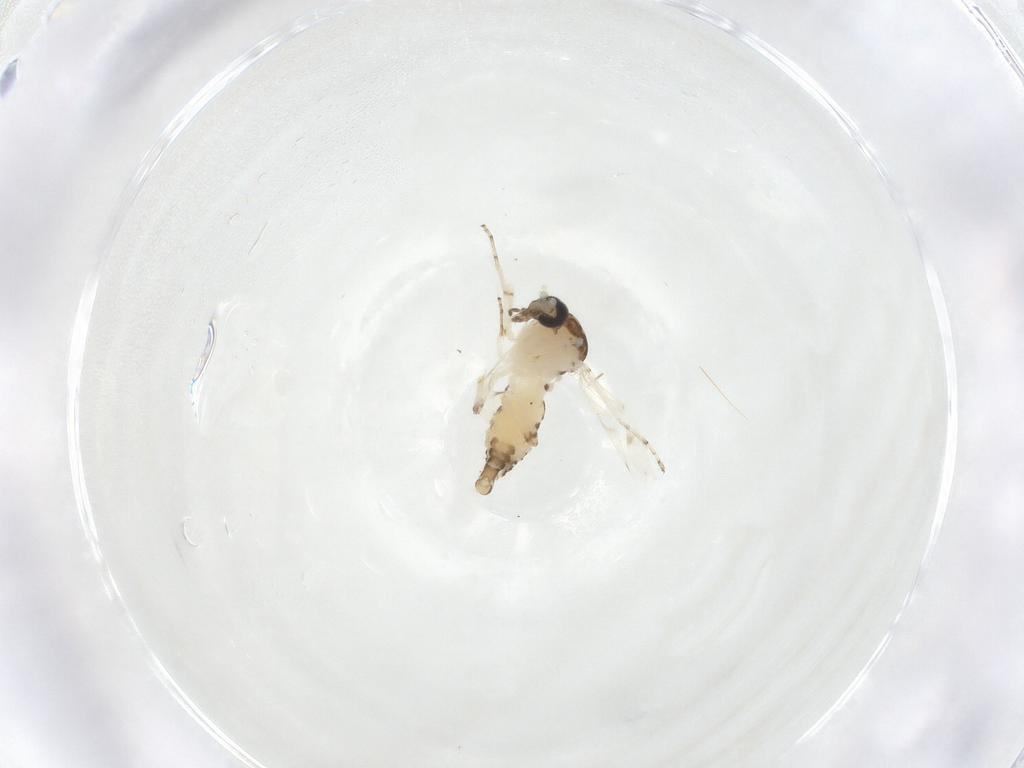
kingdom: Animalia
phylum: Arthropoda
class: Insecta
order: Diptera
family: Ceratopogonidae
